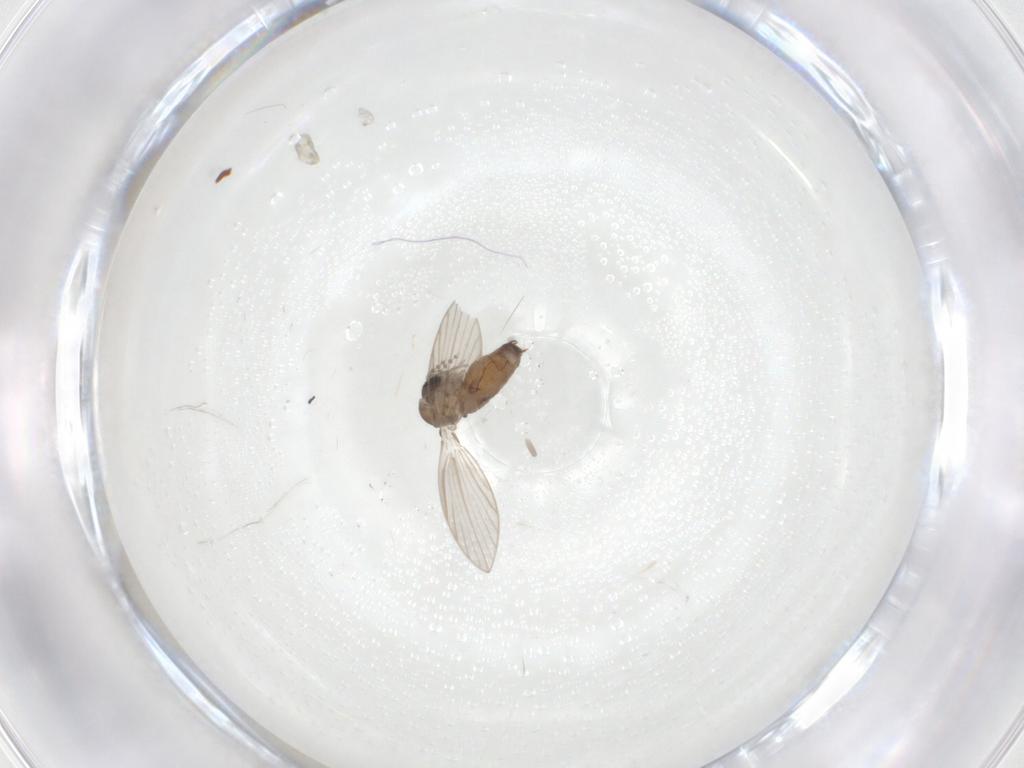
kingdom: Animalia
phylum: Arthropoda
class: Insecta
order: Diptera
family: Psychodidae
